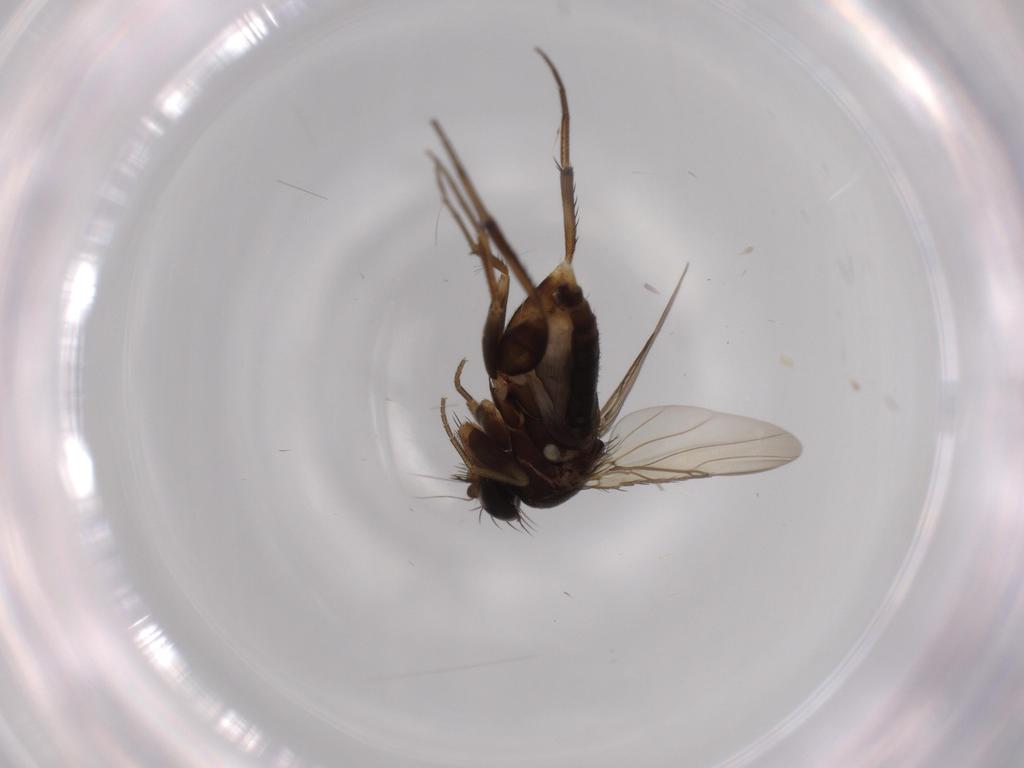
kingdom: Animalia
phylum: Arthropoda
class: Insecta
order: Diptera
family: Phoridae
